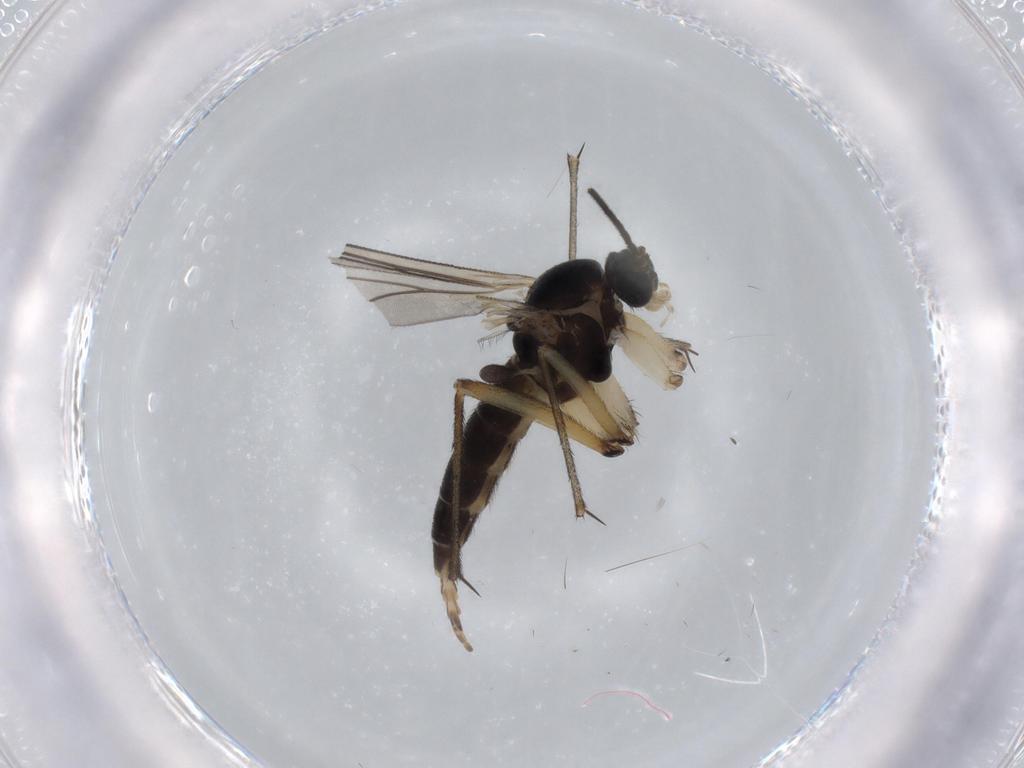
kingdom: Animalia
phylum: Arthropoda
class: Insecta
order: Diptera
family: Sciaridae
